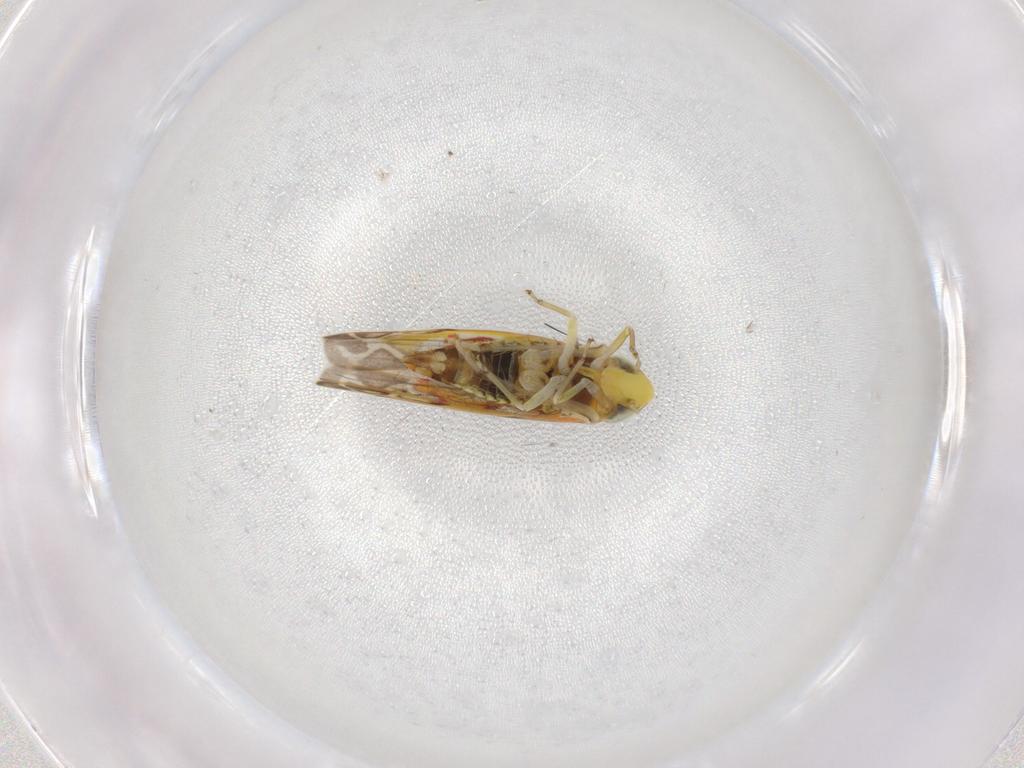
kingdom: Animalia
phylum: Arthropoda
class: Insecta
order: Hemiptera
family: Cicadellidae
